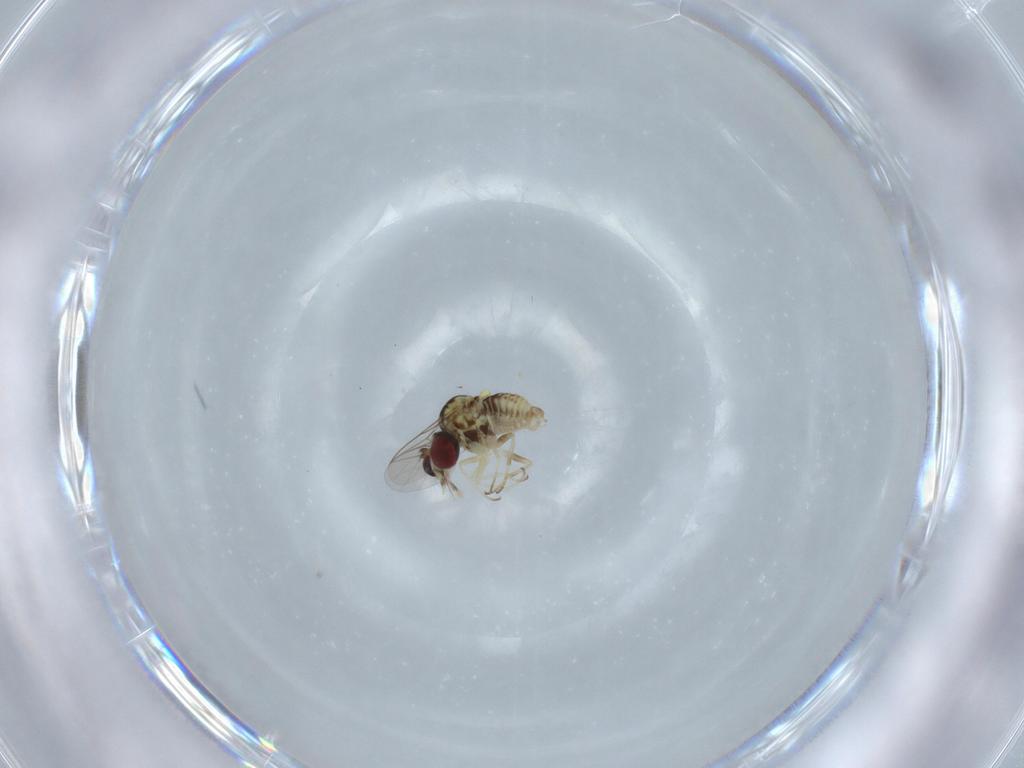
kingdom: Animalia
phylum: Arthropoda
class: Insecta
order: Diptera
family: Bombyliidae
